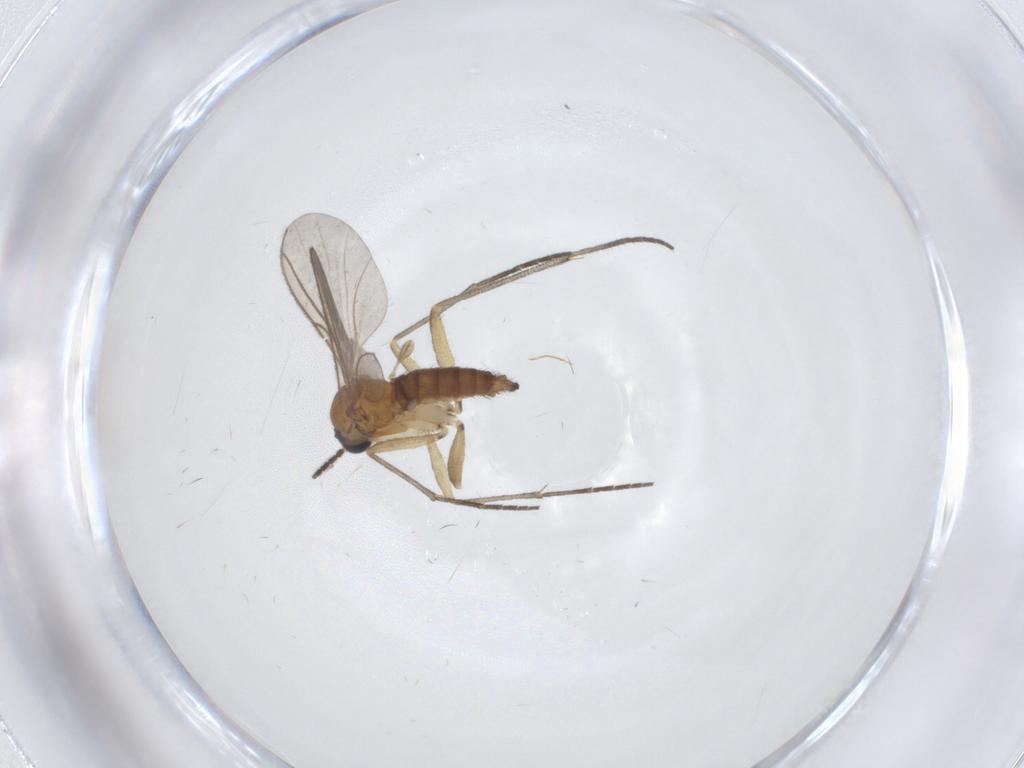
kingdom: Animalia
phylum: Arthropoda
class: Insecta
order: Diptera
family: Sciaridae
